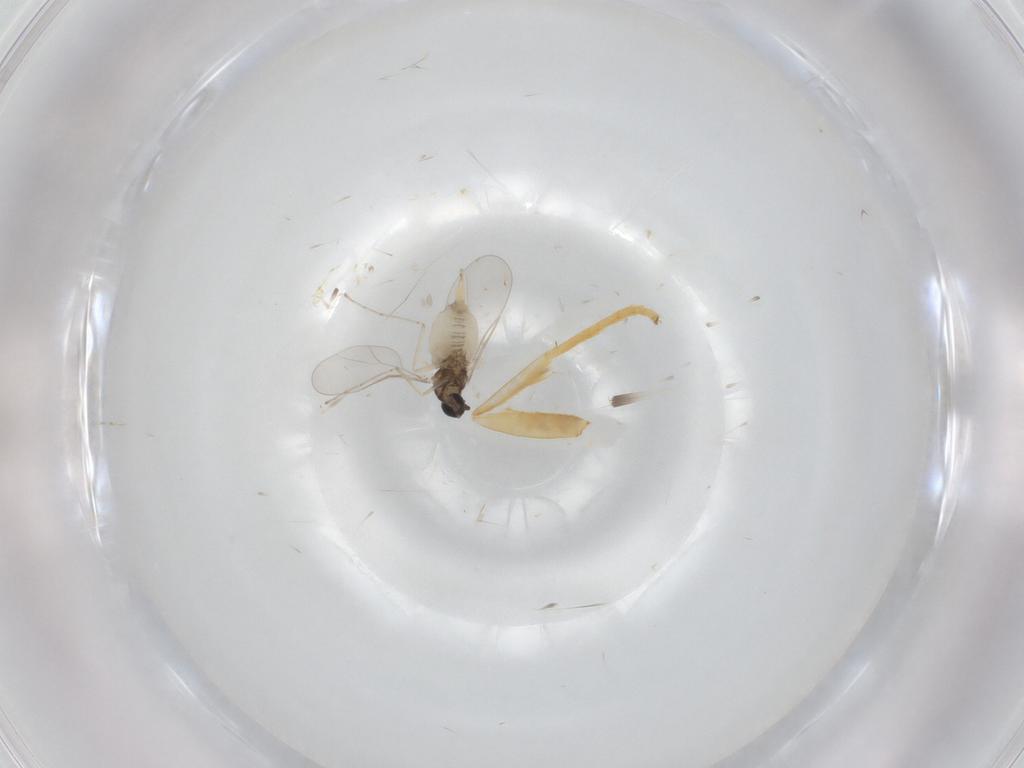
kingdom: Animalia
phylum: Arthropoda
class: Insecta
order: Diptera
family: Cecidomyiidae
